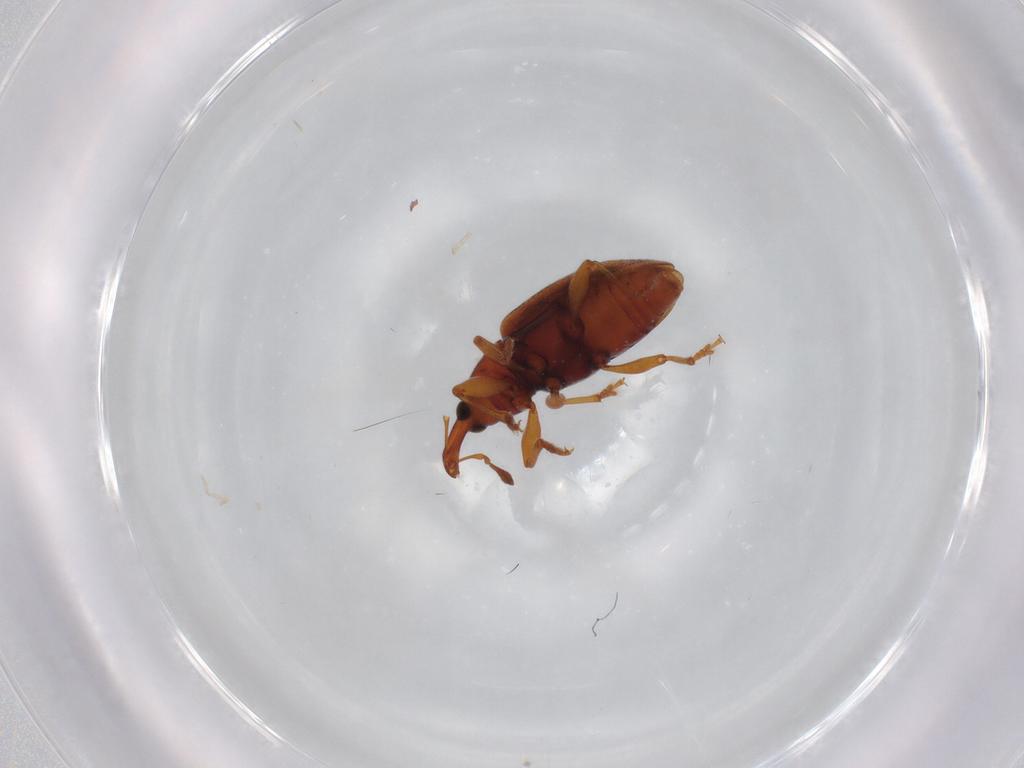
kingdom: Animalia
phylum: Arthropoda
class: Insecta
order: Coleoptera
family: Curculionidae
